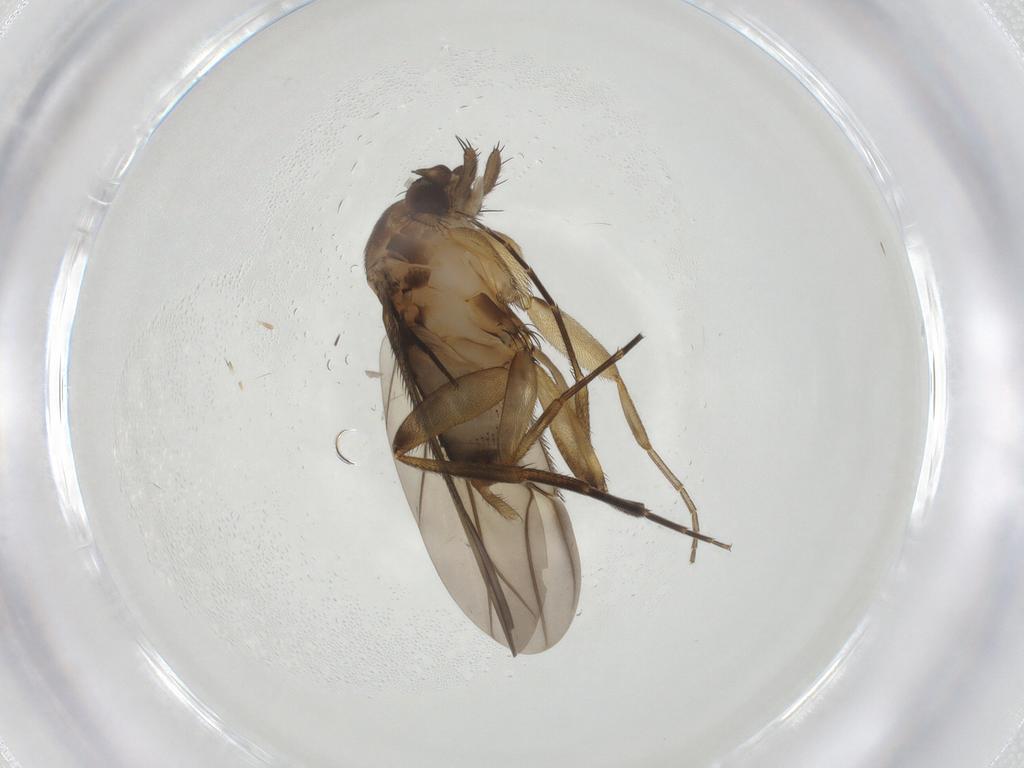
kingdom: Animalia
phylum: Arthropoda
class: Insecta
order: Diptera
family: Phoridae
